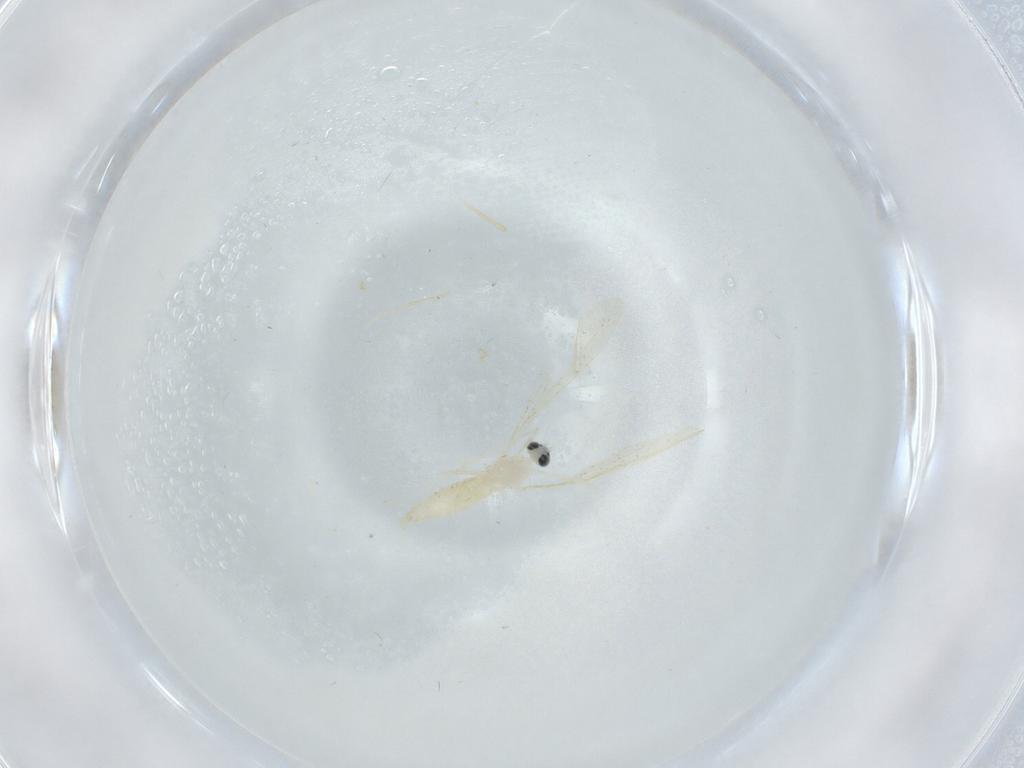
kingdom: Animalia
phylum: Arthropoda
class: Insecta
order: Diptera
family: Cecidomyiidae
